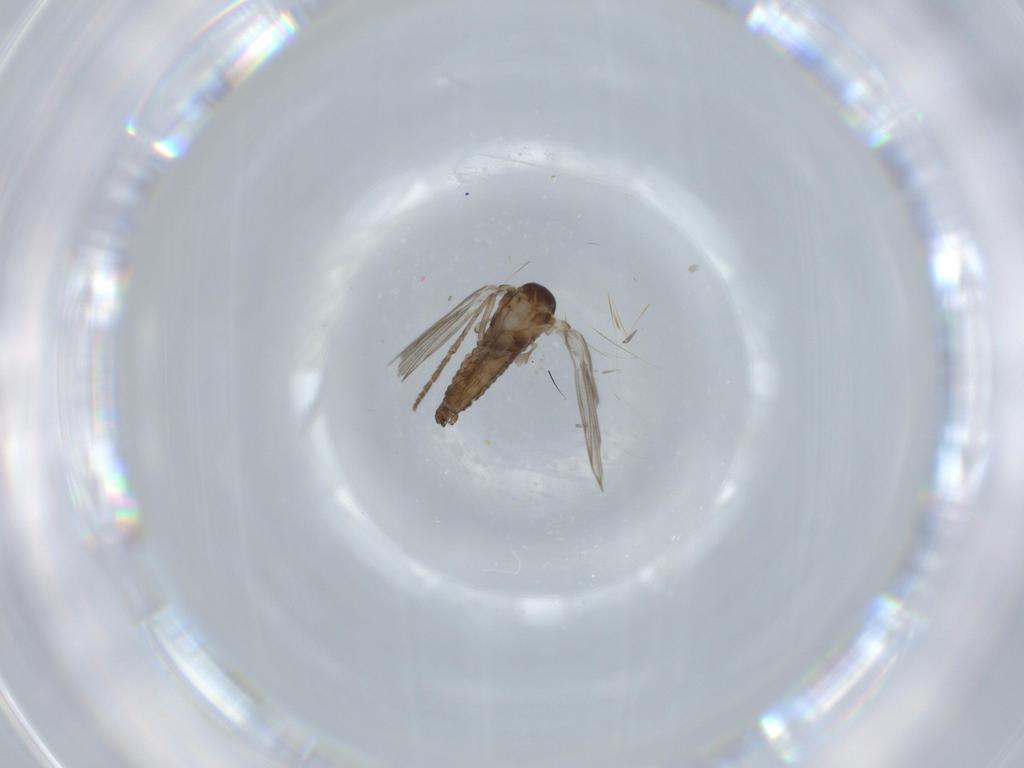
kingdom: Animalia
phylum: Arthropoda
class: Insecta
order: Diptera
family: Psychodidae
